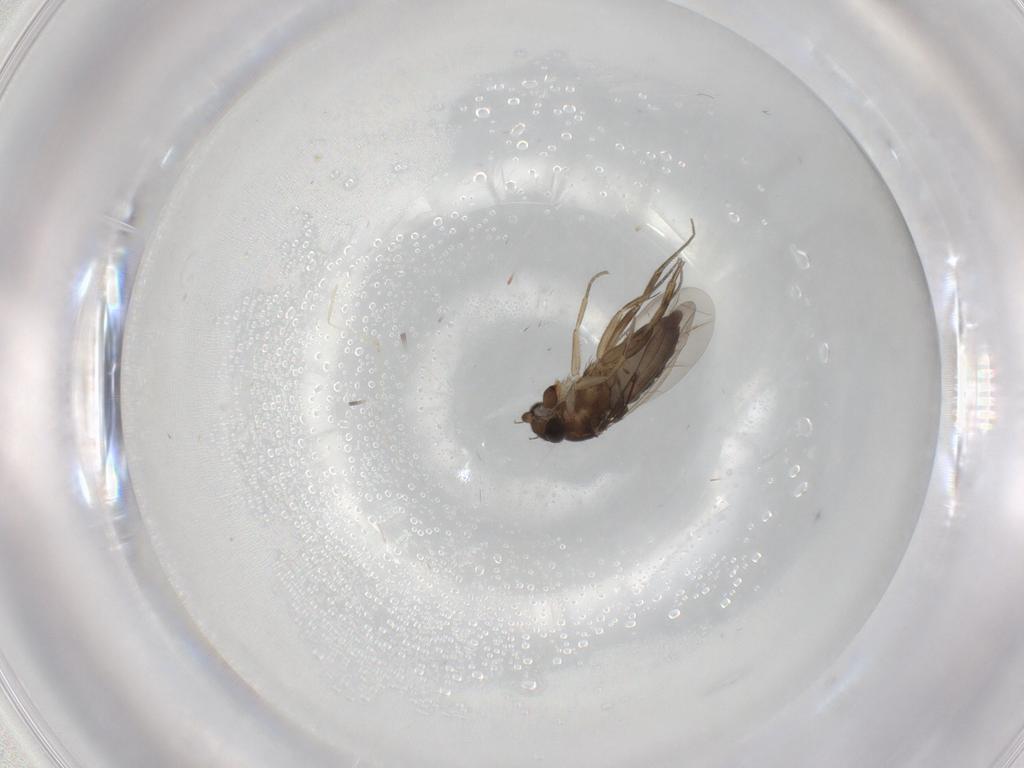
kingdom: Animalia
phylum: Arthropoda
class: Insecta
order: Diptera
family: Phoridae
